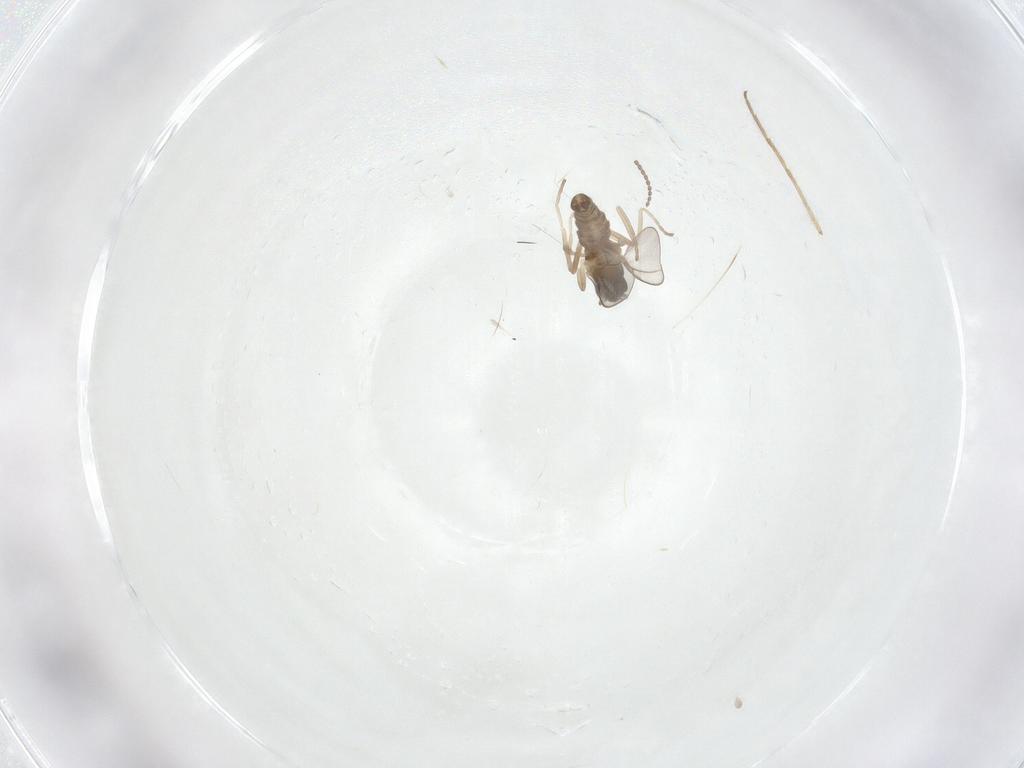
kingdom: Animalia
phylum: Arthropoda
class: Insecta
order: Diptera
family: Cecidomyiidae
